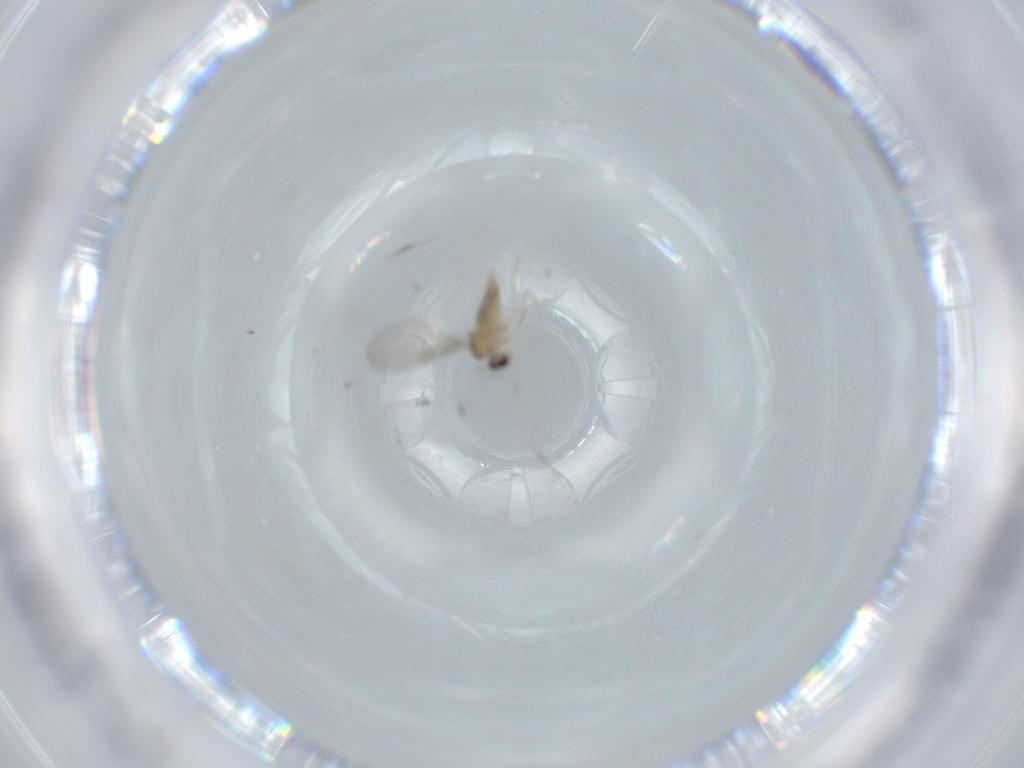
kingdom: Animalia
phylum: Arthropoda
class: Insecta
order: Diptera
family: Cecidomyiidae
